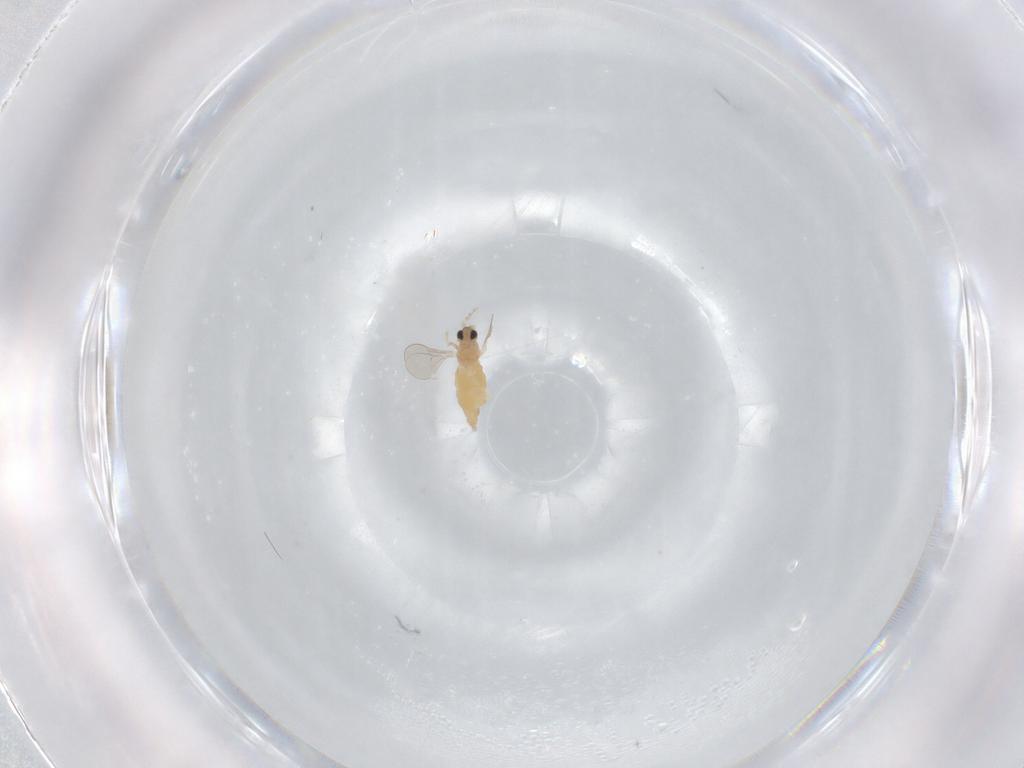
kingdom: Animalia
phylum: Arthropoda
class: Insecta
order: Diptera
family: Cecidomyiidae
